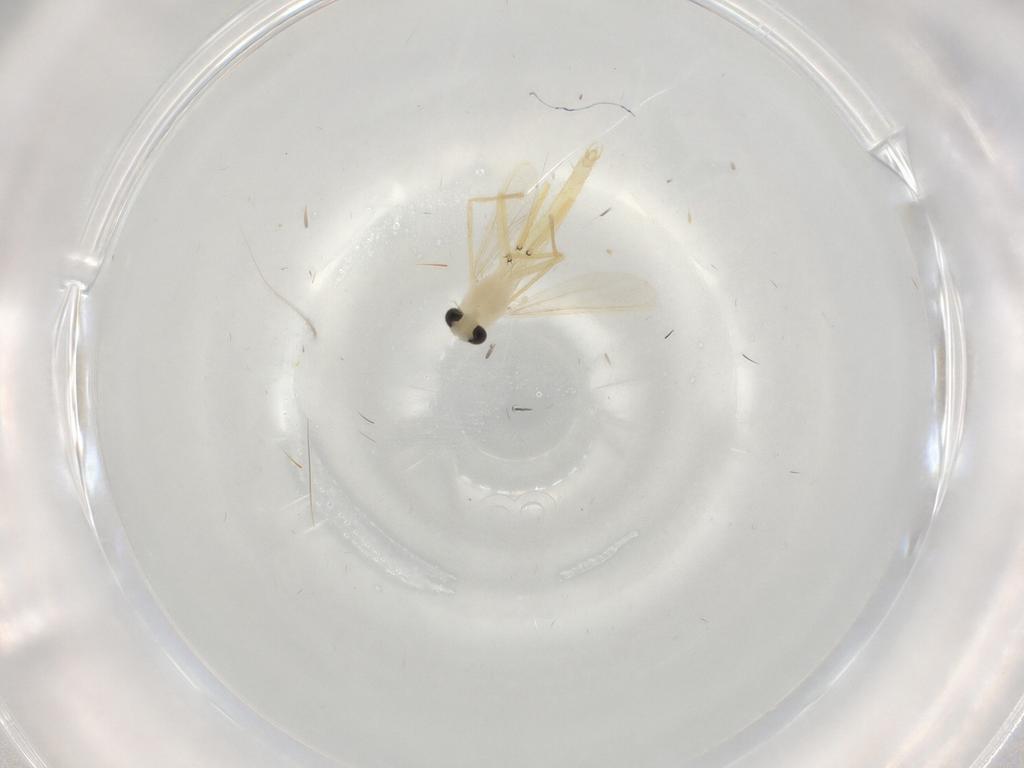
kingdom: Animalia
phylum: Arthropoda
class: Insecta
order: Diptera
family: Chironomidae
